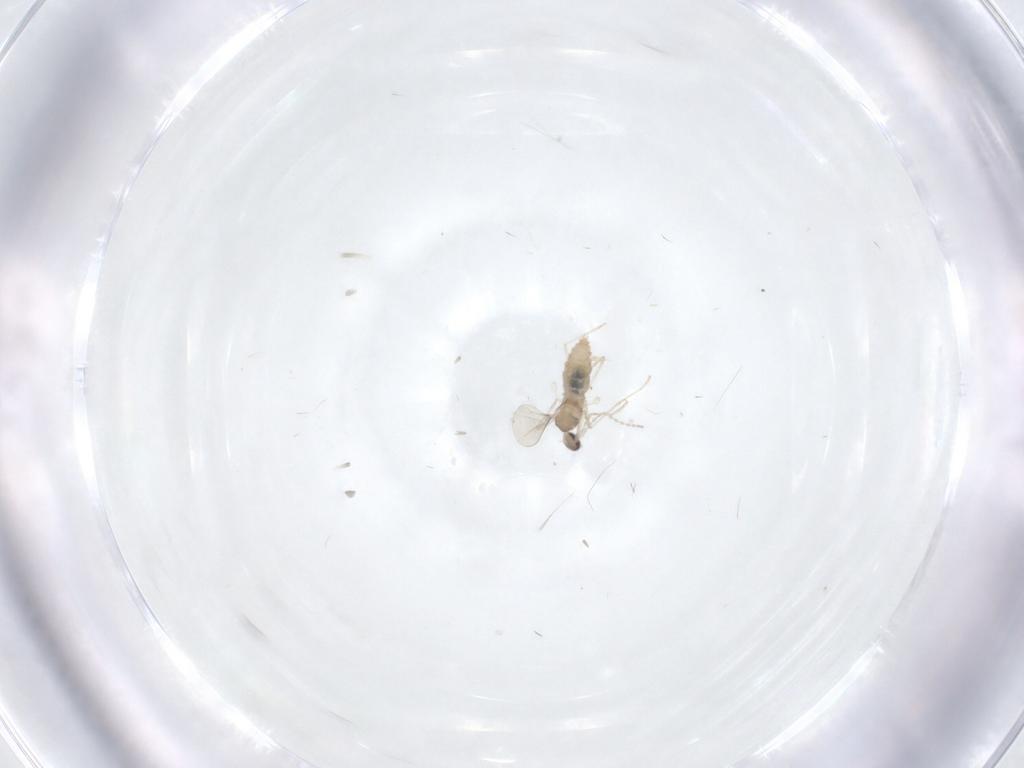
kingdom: Animalia
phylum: Arthropoda
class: Insecta
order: Diptera
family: Cecidomyiidae
